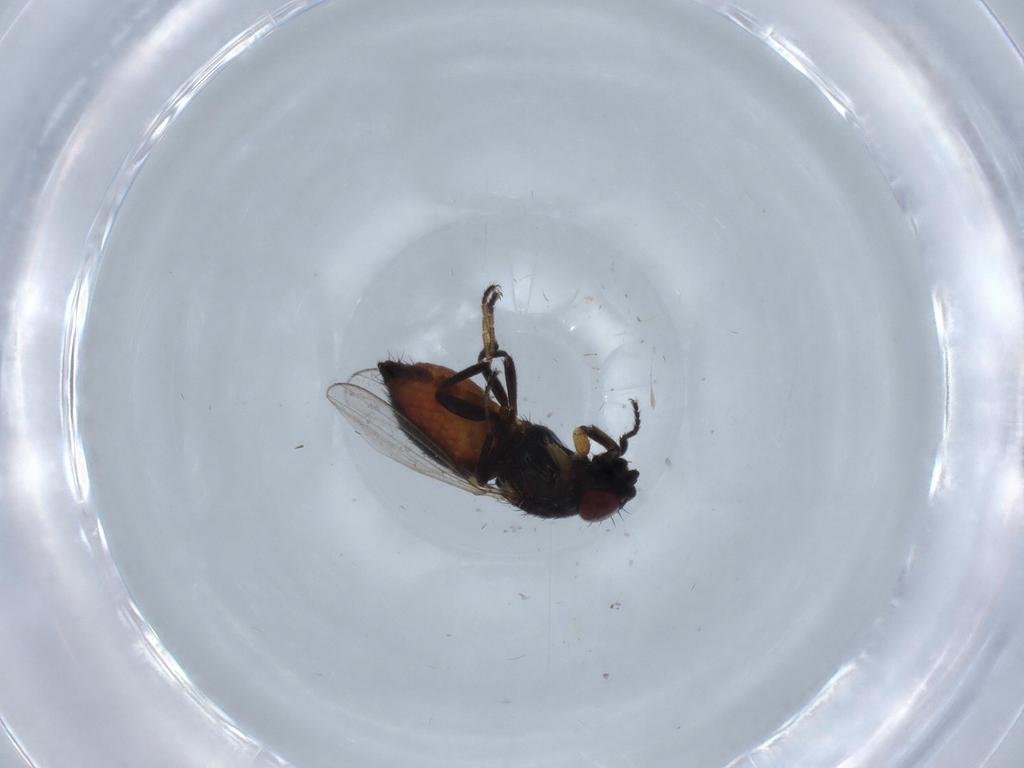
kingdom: Animalia
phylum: Arthropoda
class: Insecta
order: Diptera
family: Milichiidae
